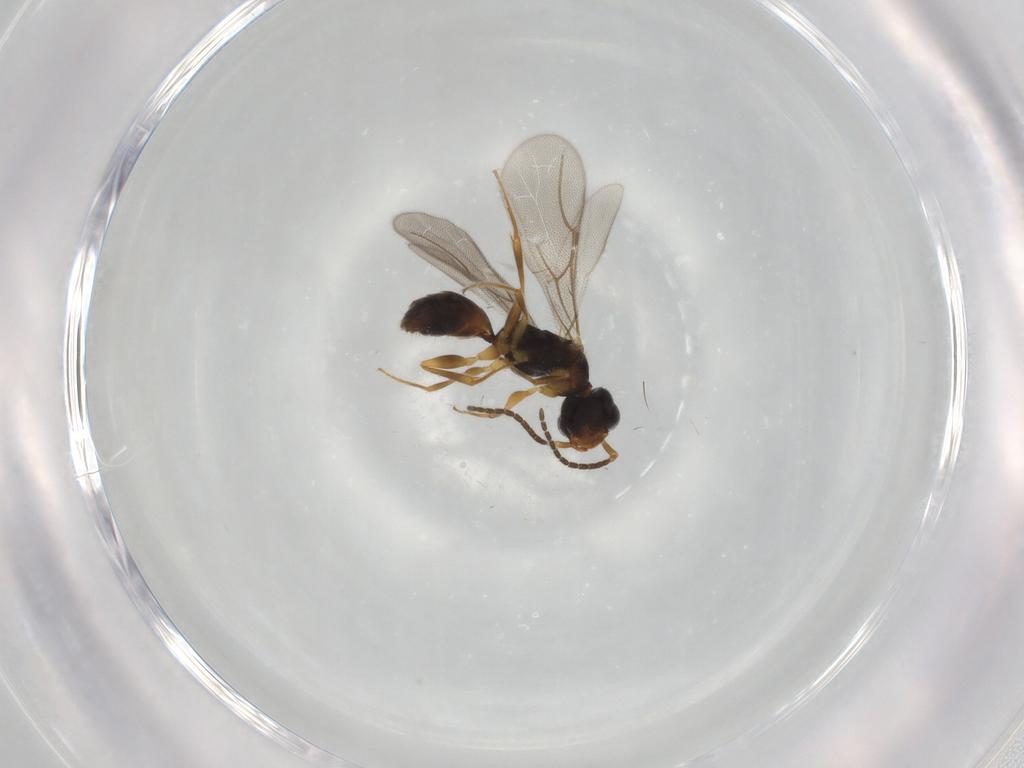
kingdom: Animalia
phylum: Arthropoda
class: Insecta
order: Hymenoptera
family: Bethylidae
